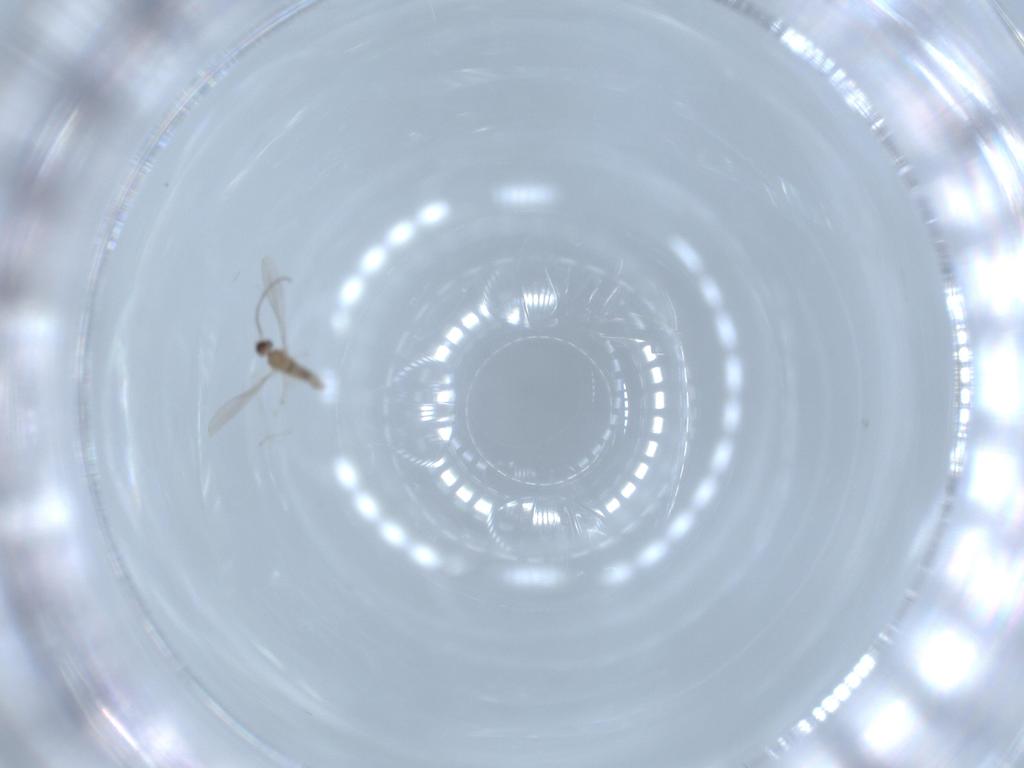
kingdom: Animalia
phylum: Arthropoda
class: Insecta
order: Diptera
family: Cecidomyiidae
